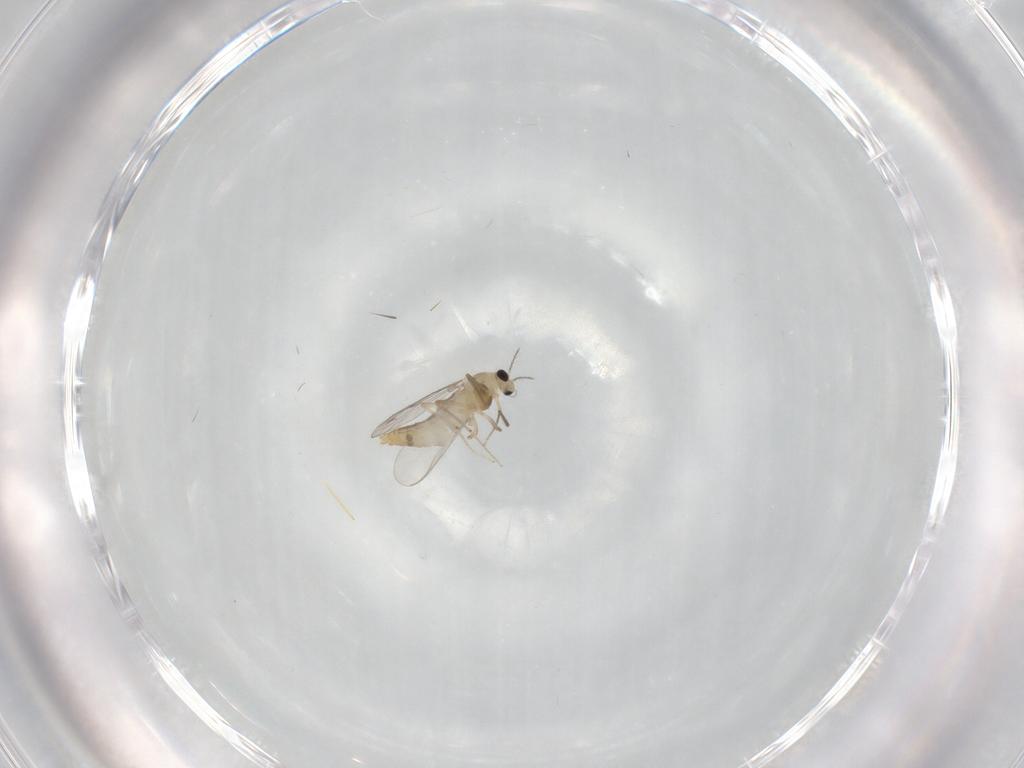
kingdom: Animalia
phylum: Arthropoda
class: Insecta
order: Diptera
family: Chironomidae
